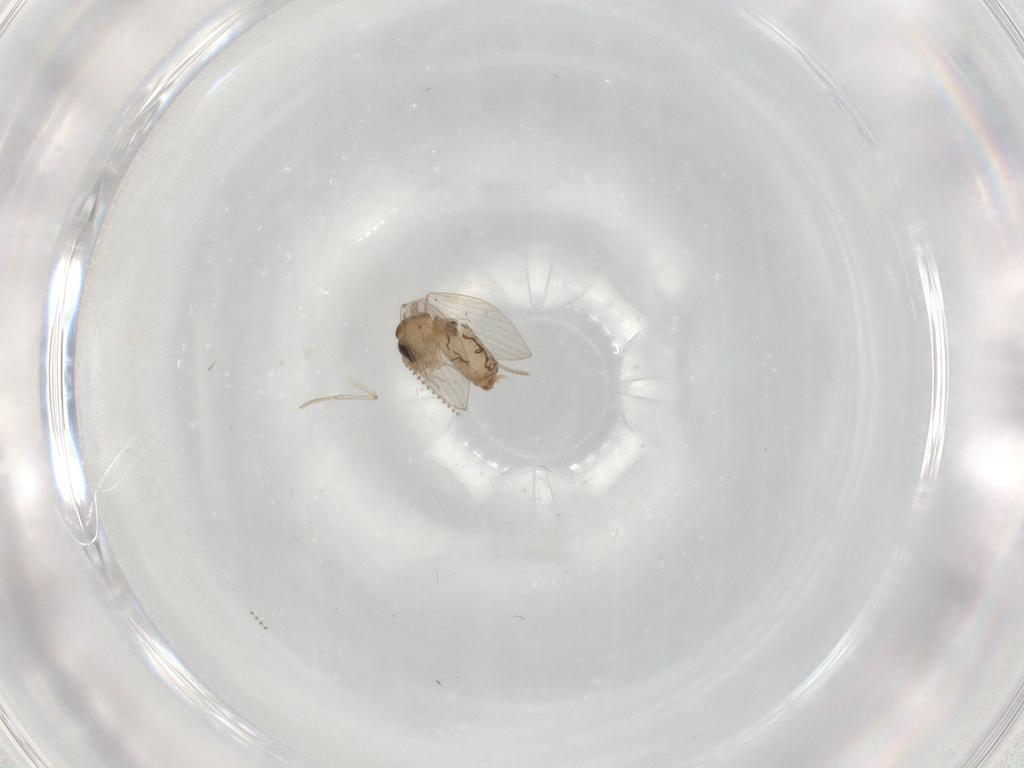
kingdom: Animalia
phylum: Arthropoda
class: Insecta
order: Diptera
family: Psychodidae
